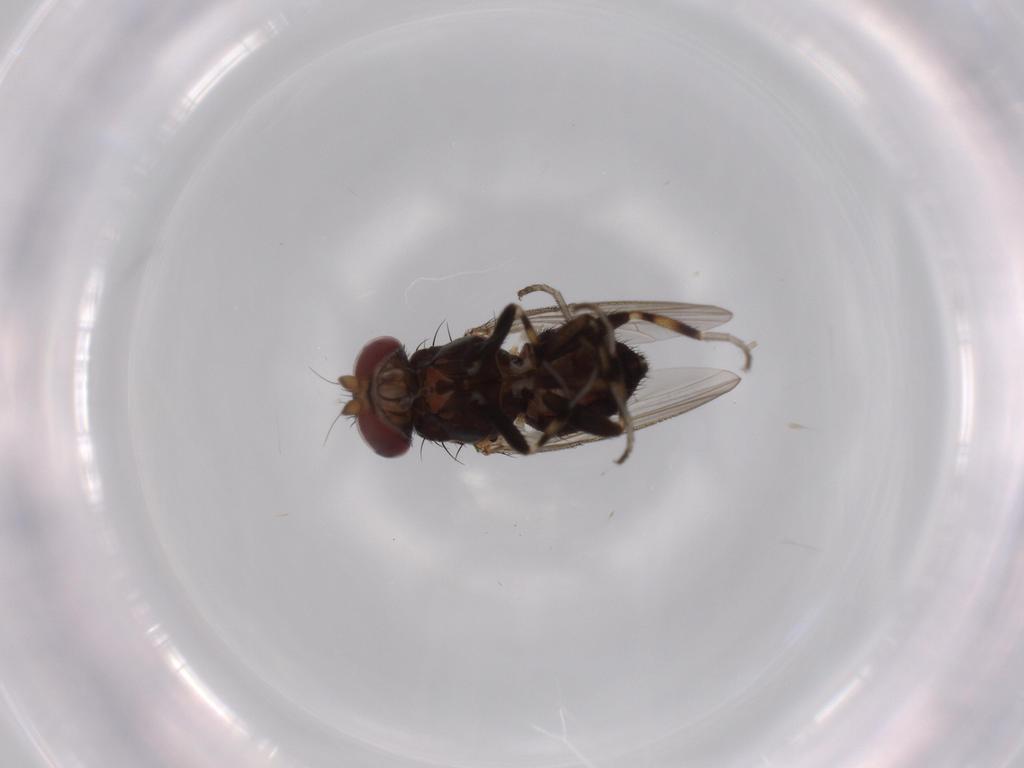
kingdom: Animalia
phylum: Arthropoda
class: Insecta
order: Diptera
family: Heleomyzidae
